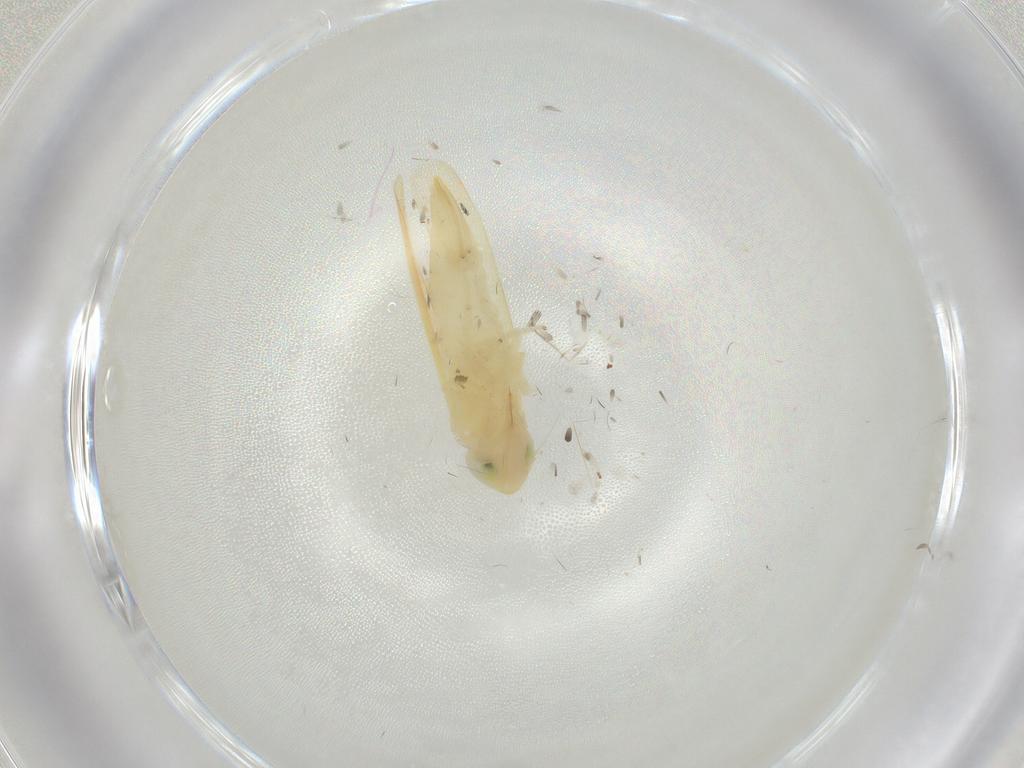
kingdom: Animalia
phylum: Arthropoda
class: Insecta
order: Hemiptera
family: Cicadellidae
